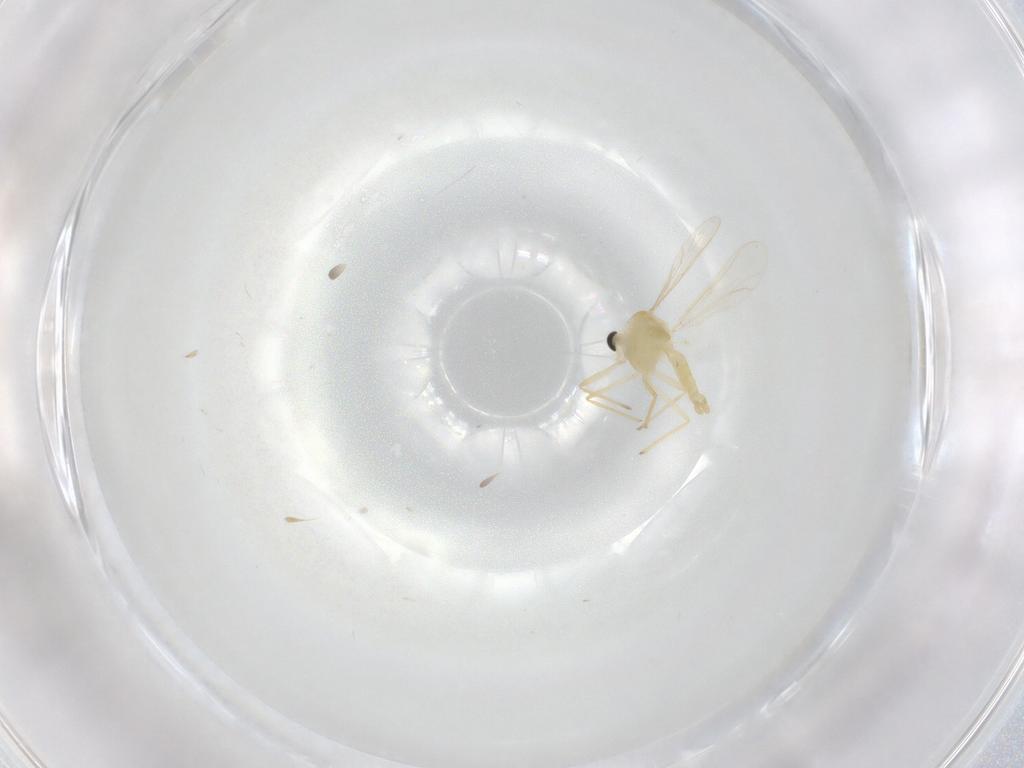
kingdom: Animalia
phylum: Arthropoda
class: Insecta
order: Diptera
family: Chironomidae
